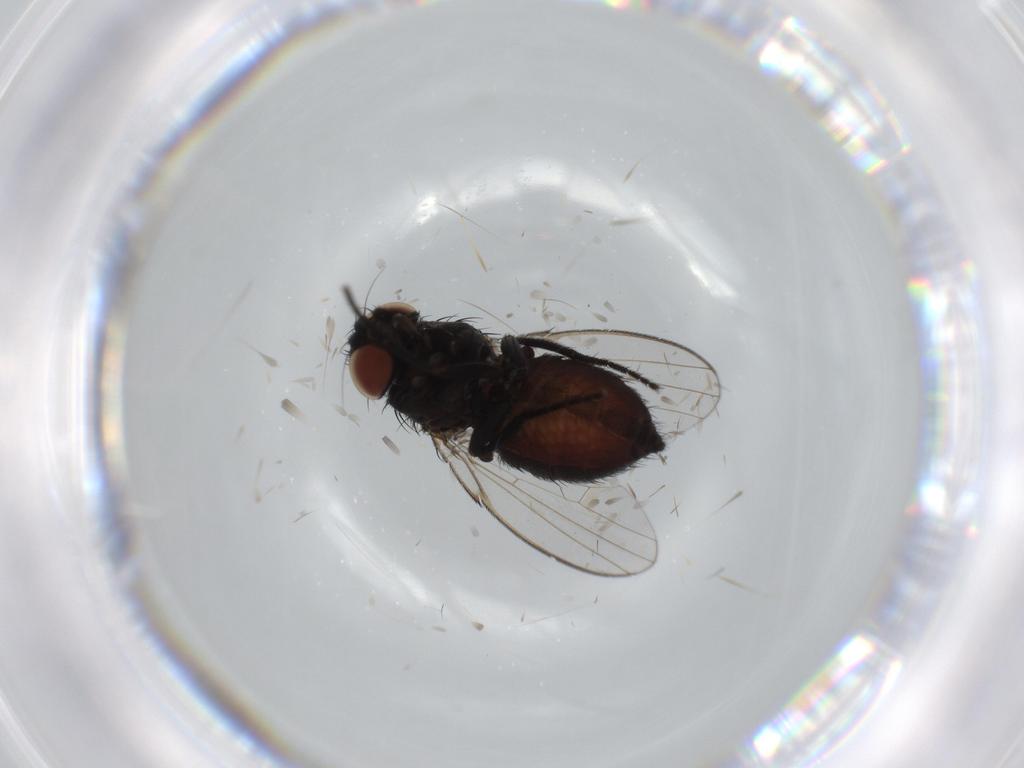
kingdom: Animalia
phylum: Arthropoda
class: Insecta
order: Diptera
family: Milichiidae
